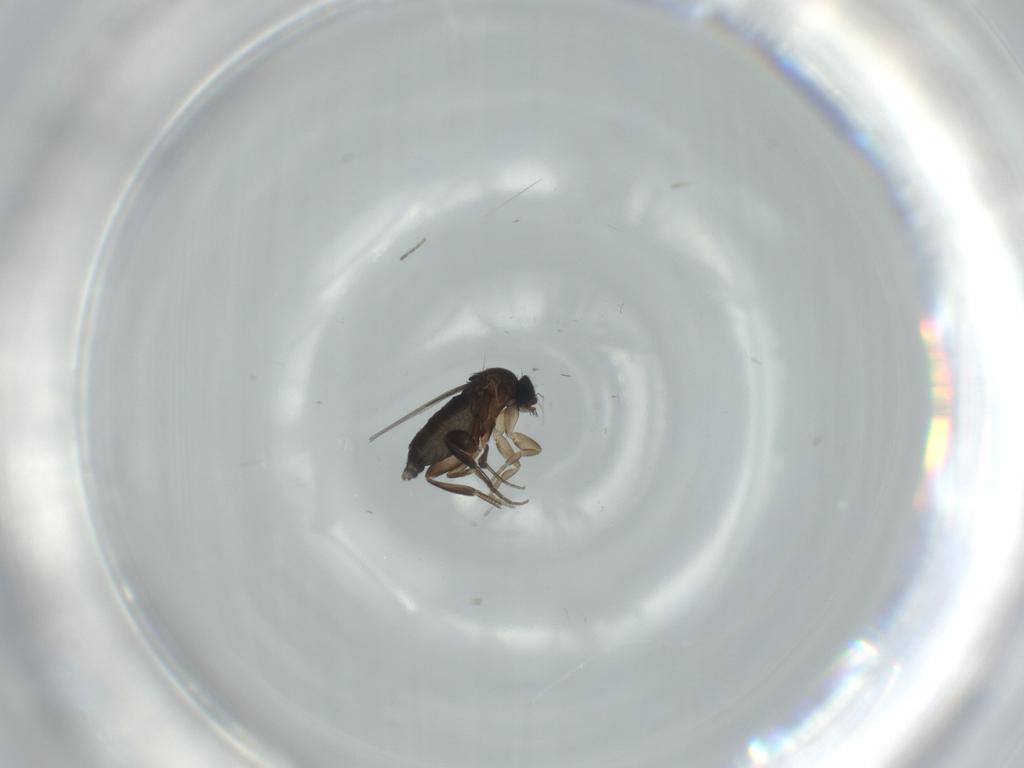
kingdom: Animalia
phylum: Arthropoda
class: Insecta
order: Diptera
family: Phoridae
